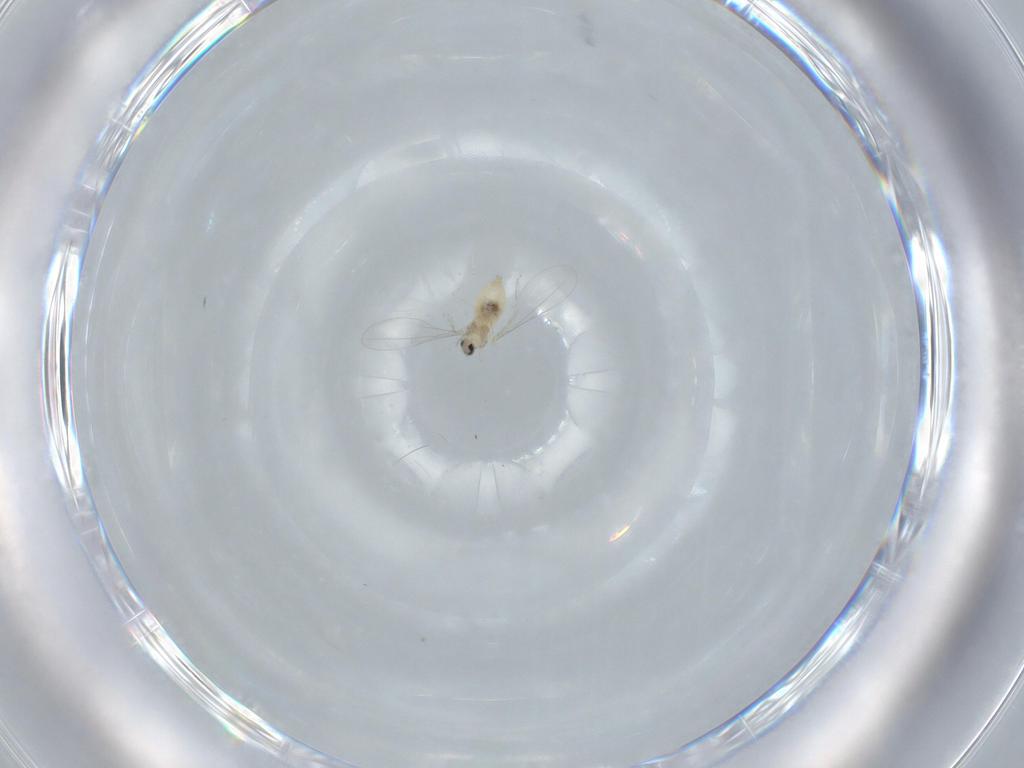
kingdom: Animalia
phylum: Arthropoda
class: Insecta
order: Diptera
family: Cecidomyiidae
